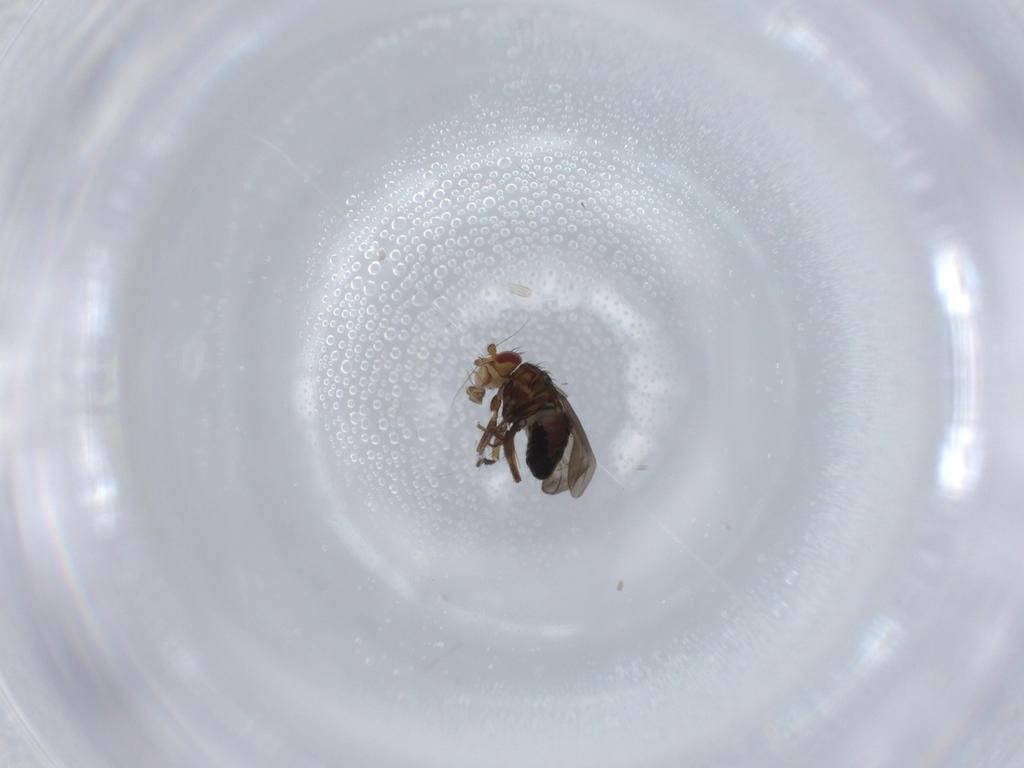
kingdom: Animalia
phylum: Arthropoda
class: Insecta
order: Diptera
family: Sphaeroceridae
